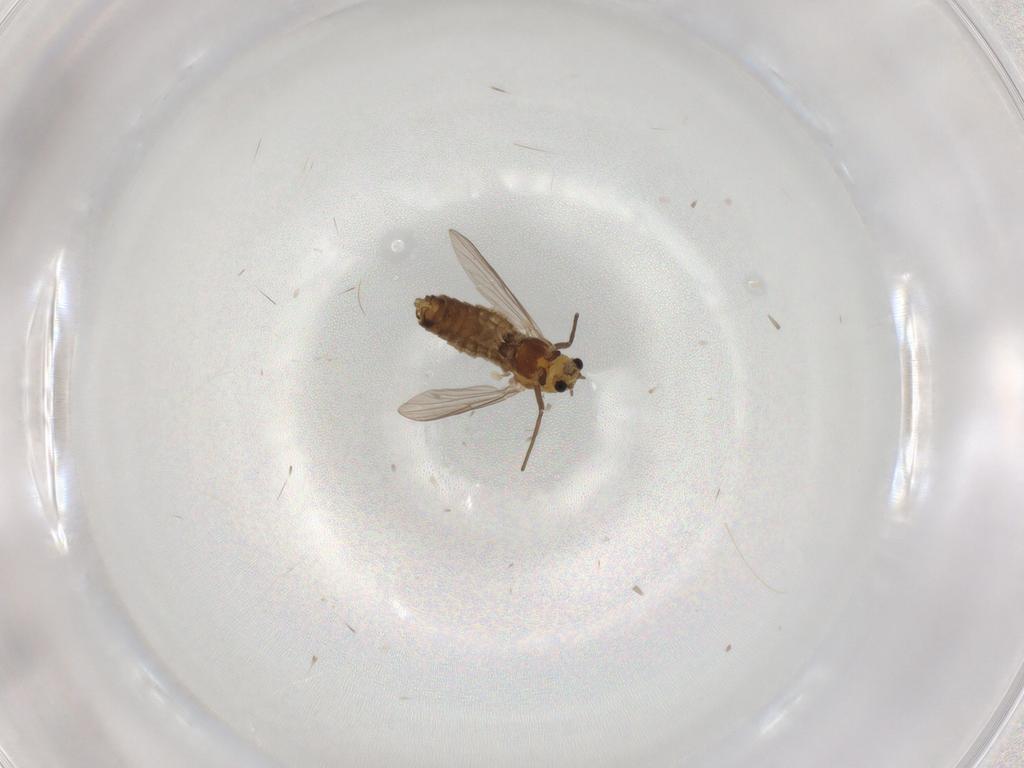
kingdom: Animalia
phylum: Arthropoda
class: Insecta
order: Diptera
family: Chironomidae
